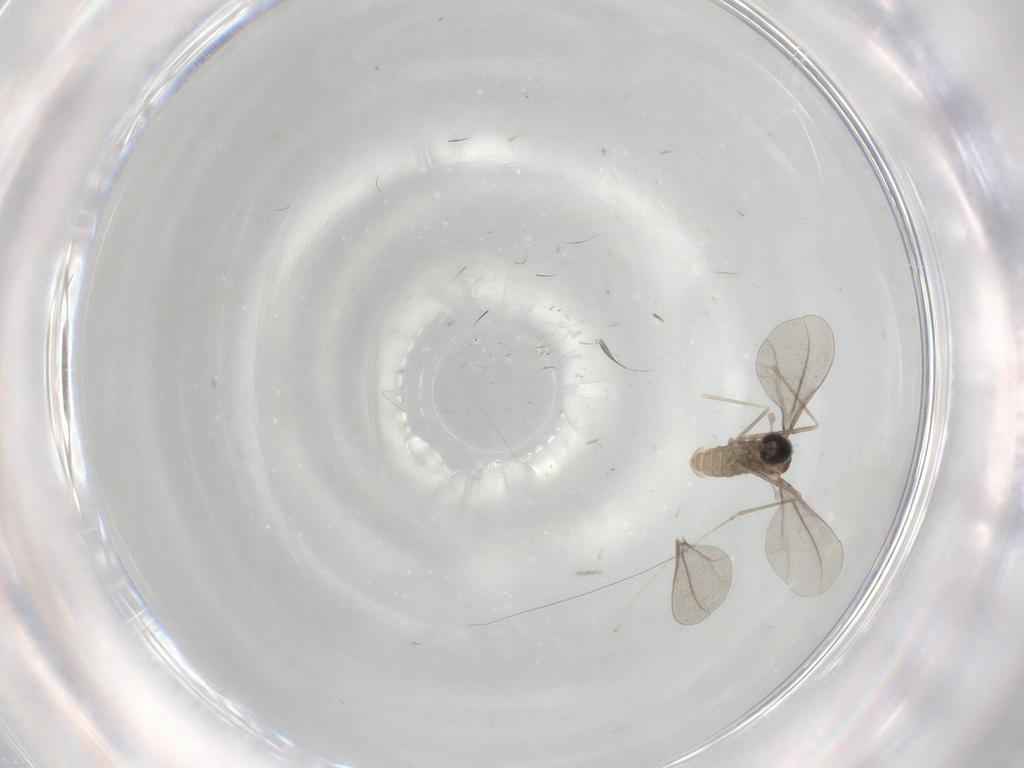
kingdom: Animalia
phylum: Arthropoda
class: Insecta
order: Diptera
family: Cecidomyiidae
